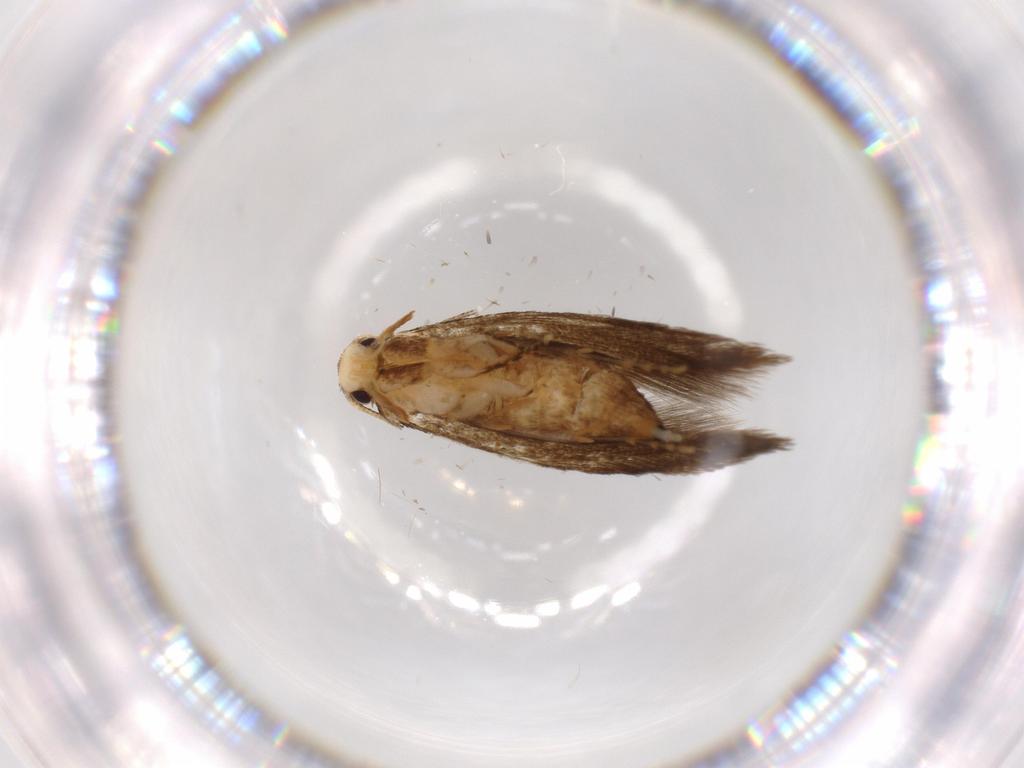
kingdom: Animalia
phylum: Arthropoda
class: Insecta
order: Lepidoptera
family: Tineidae
